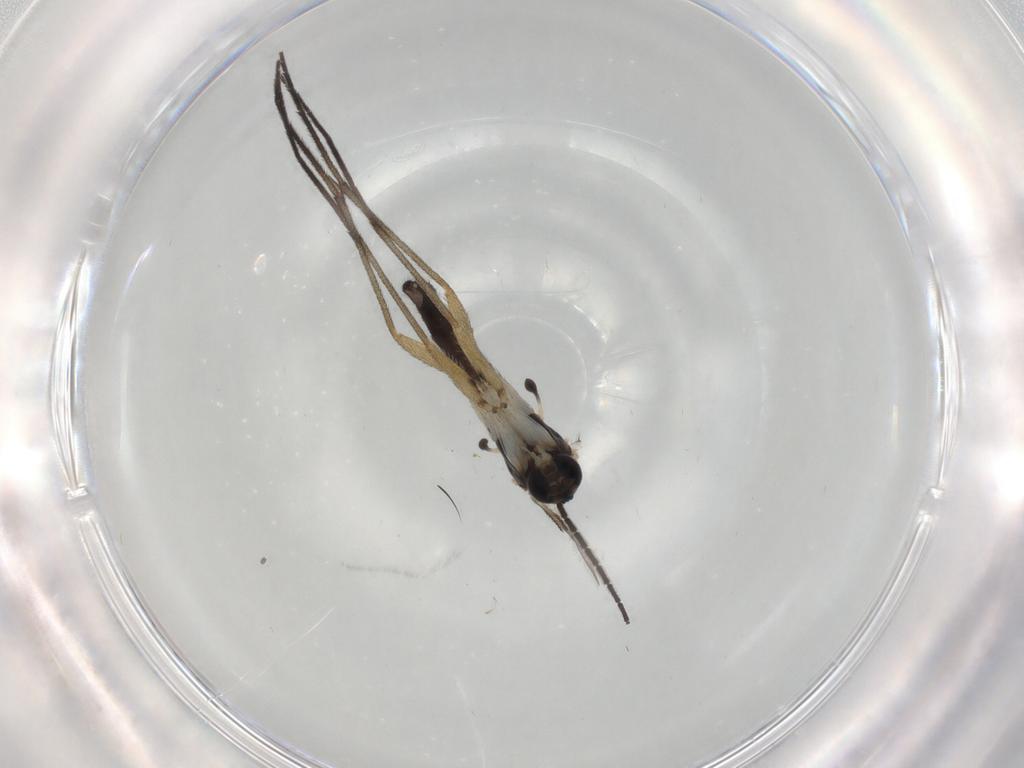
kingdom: Animalia
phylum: Arthropoda
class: Insecta
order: Diptera
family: Sciaridae
